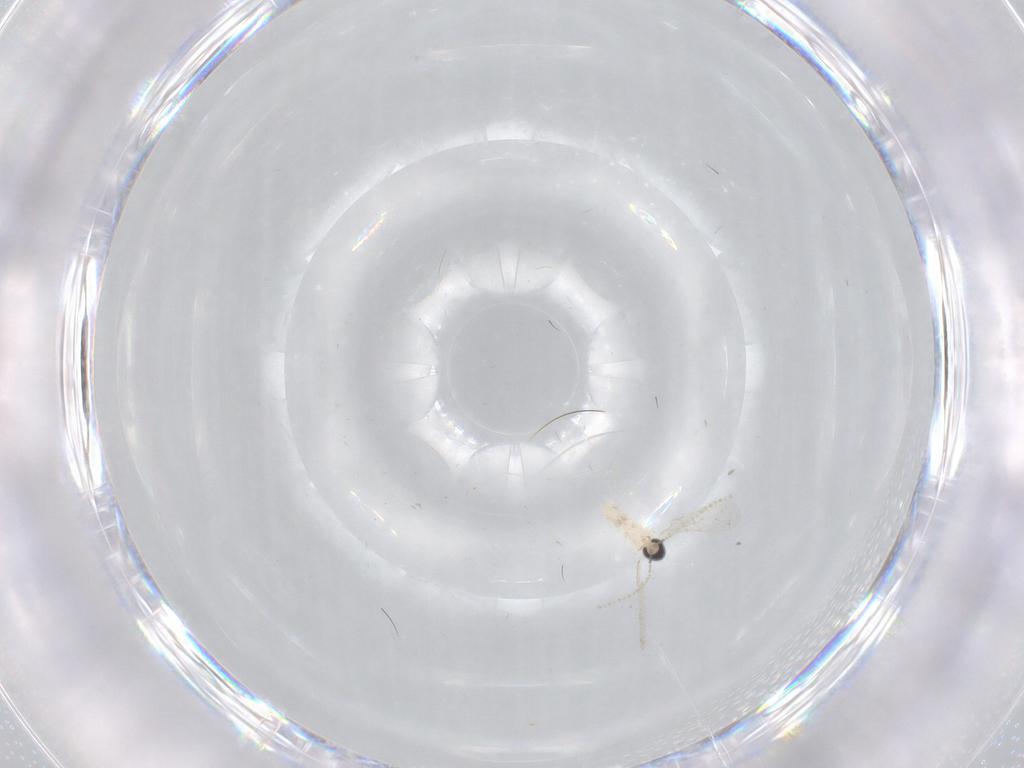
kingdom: Animalia
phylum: Arthropoda
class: Insecta
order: Diptera
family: Cecidomyiidae
